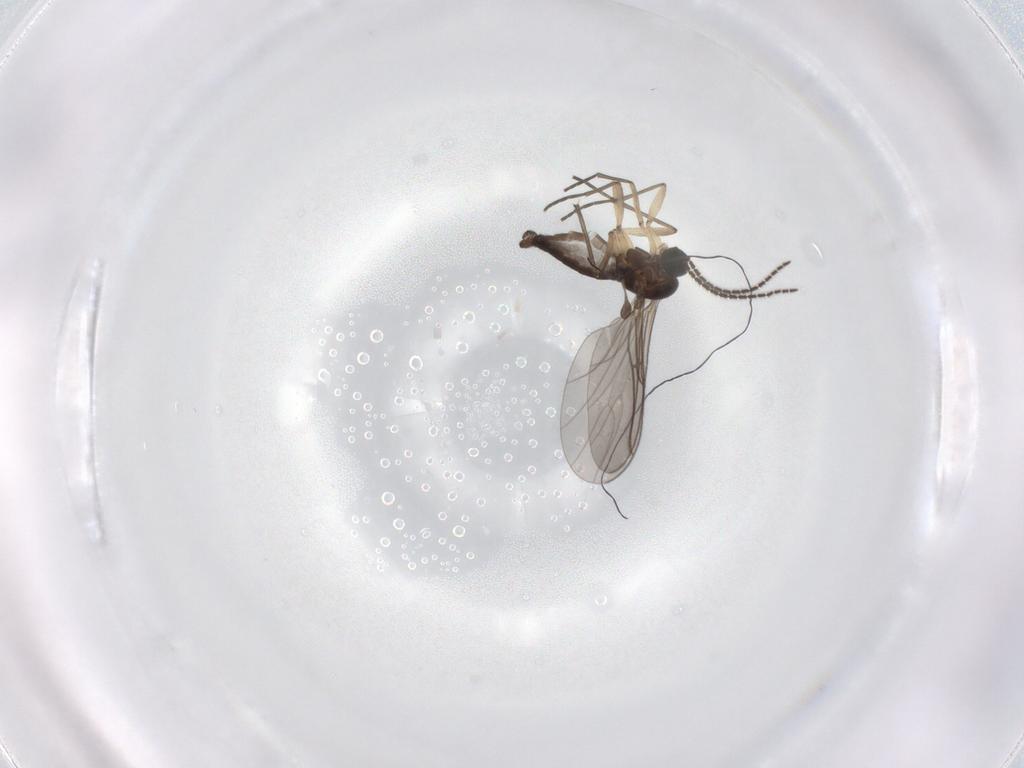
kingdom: Animalia
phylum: Arthropoda
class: Insecta
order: Diptera
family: Sciaridae
